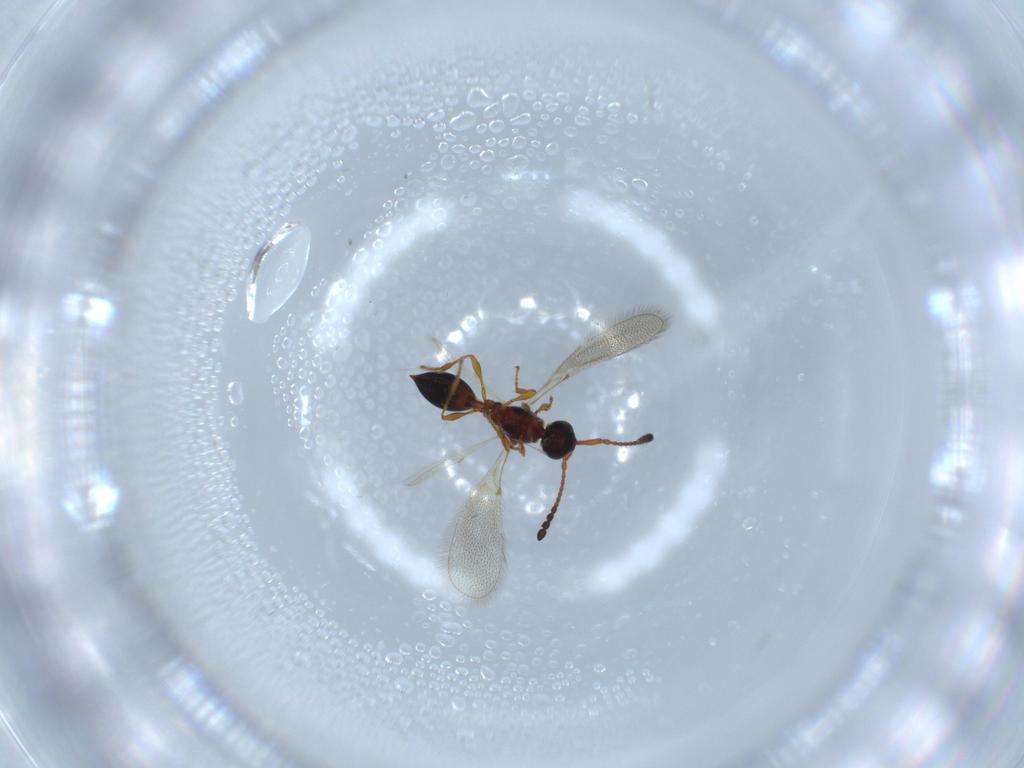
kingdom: Animalia
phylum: Arthropoda
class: Insecta
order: Hymenoptera
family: Diapriidae
